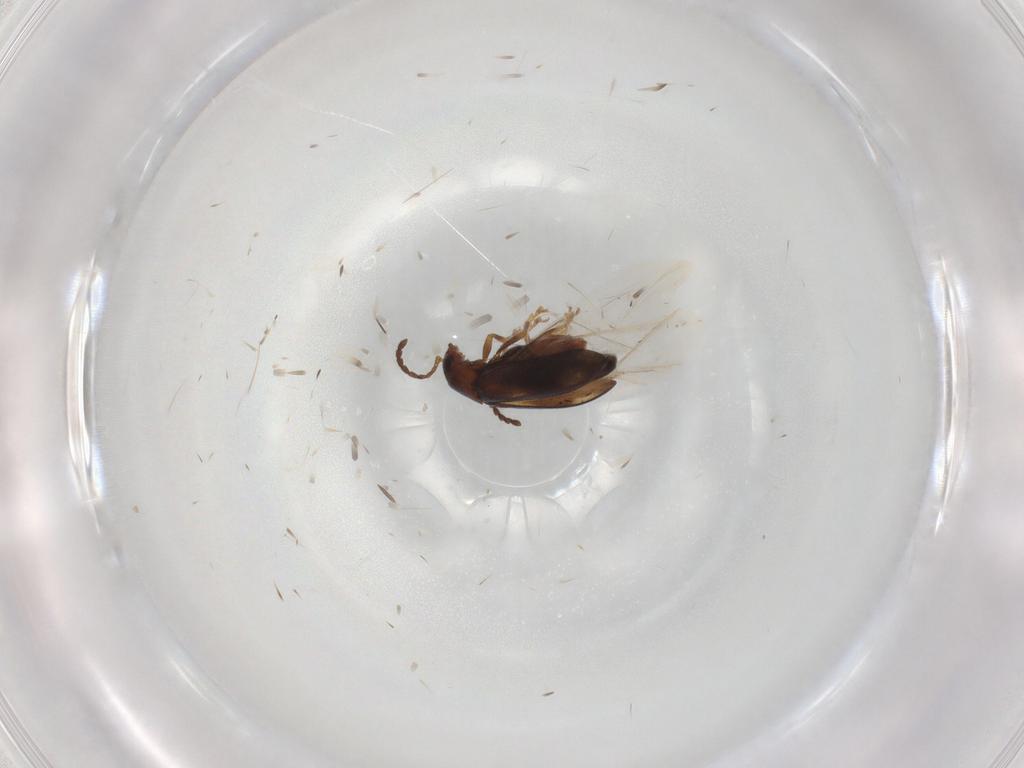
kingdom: Animalia
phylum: Arthropoda
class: Insecta
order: Coleoptera
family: Chrysomelidae
